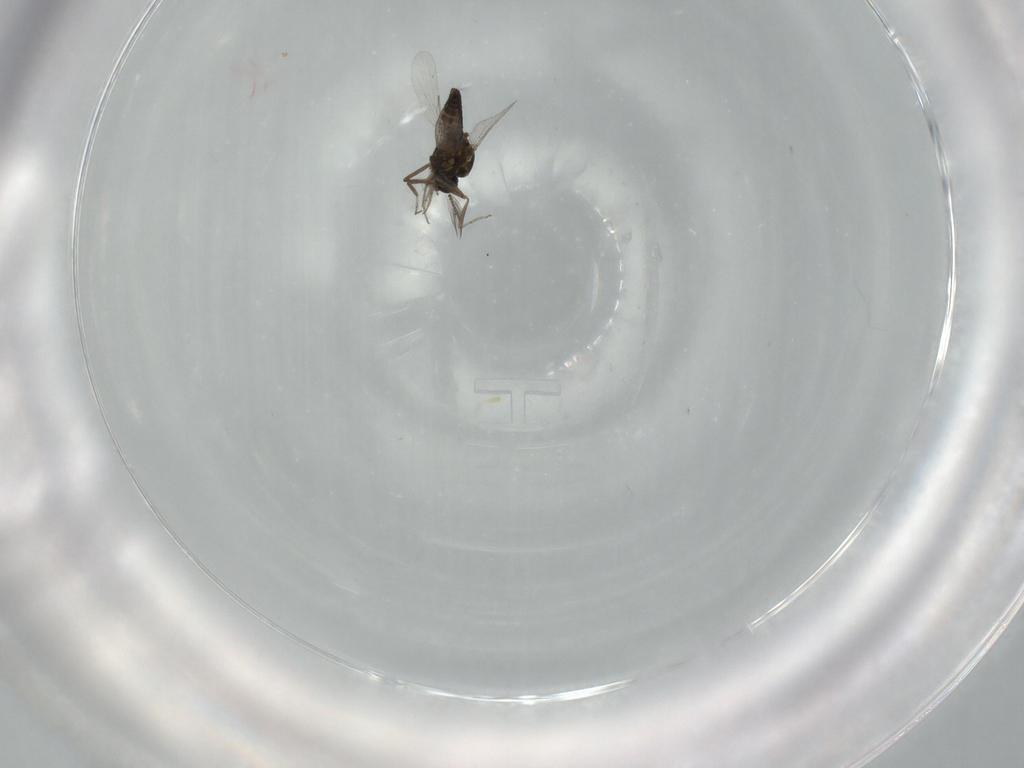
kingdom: Animalia
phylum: Arthropoda
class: Insecta
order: Diptera
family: Ceratopogonidae
